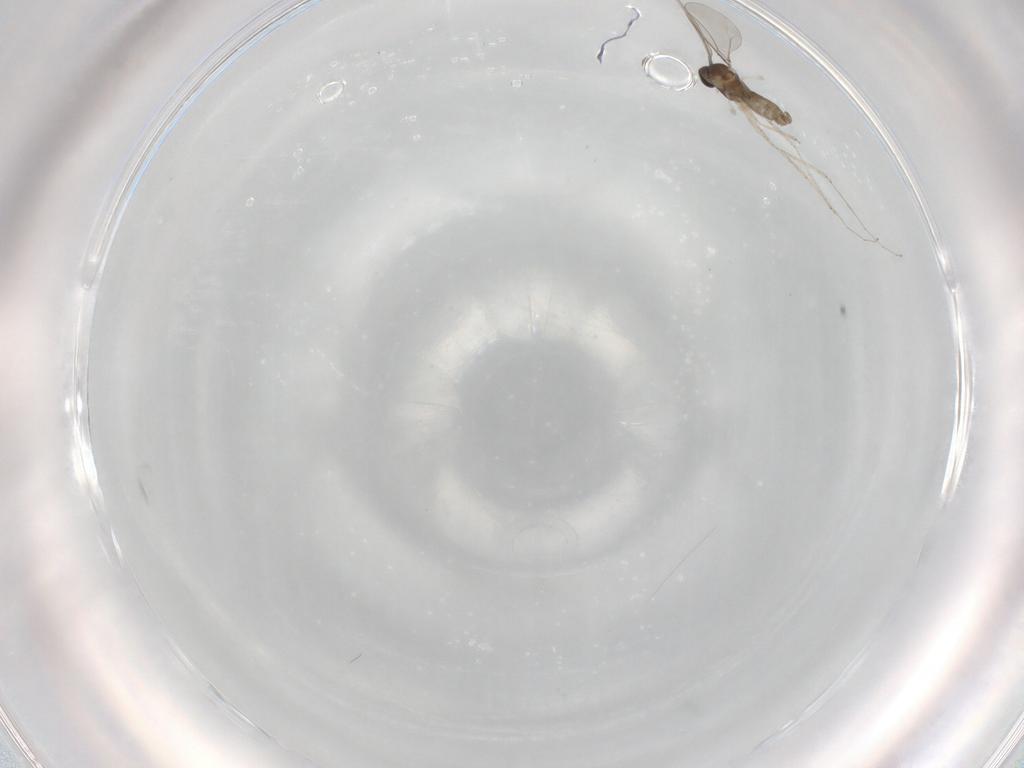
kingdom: Animalia
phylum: Arthropoda
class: Insecta
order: Diptera
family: Cecidomyiidae
